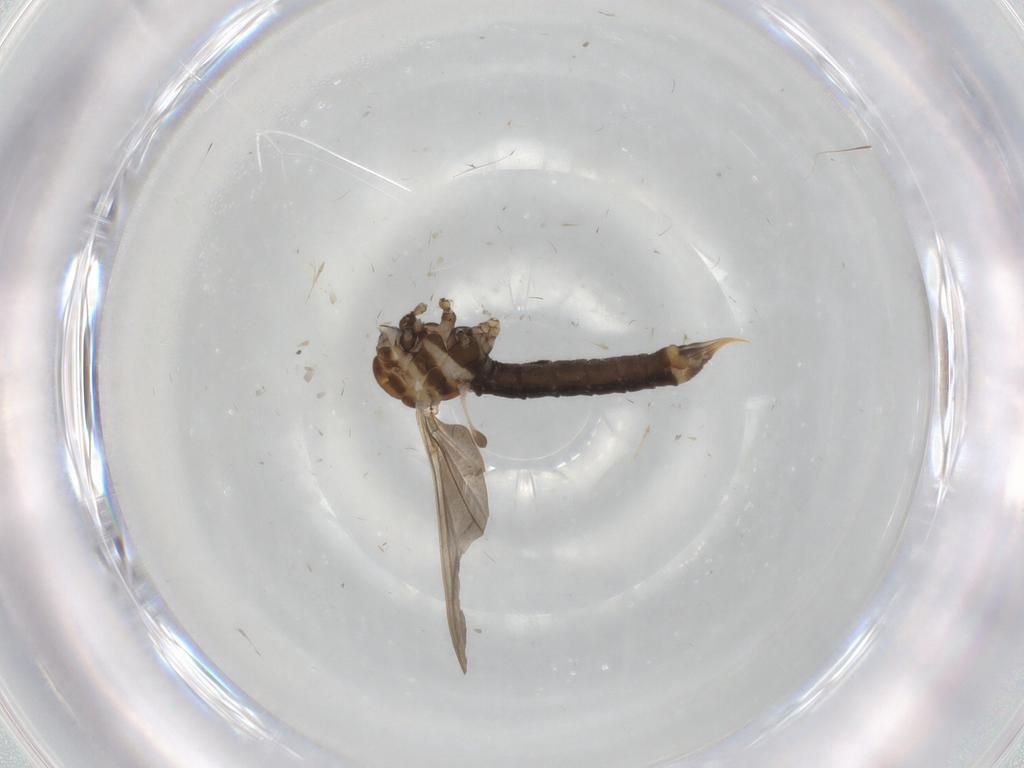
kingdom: Animalia
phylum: Arthropoda
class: Insecta
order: Diptera
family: Limoniidae
